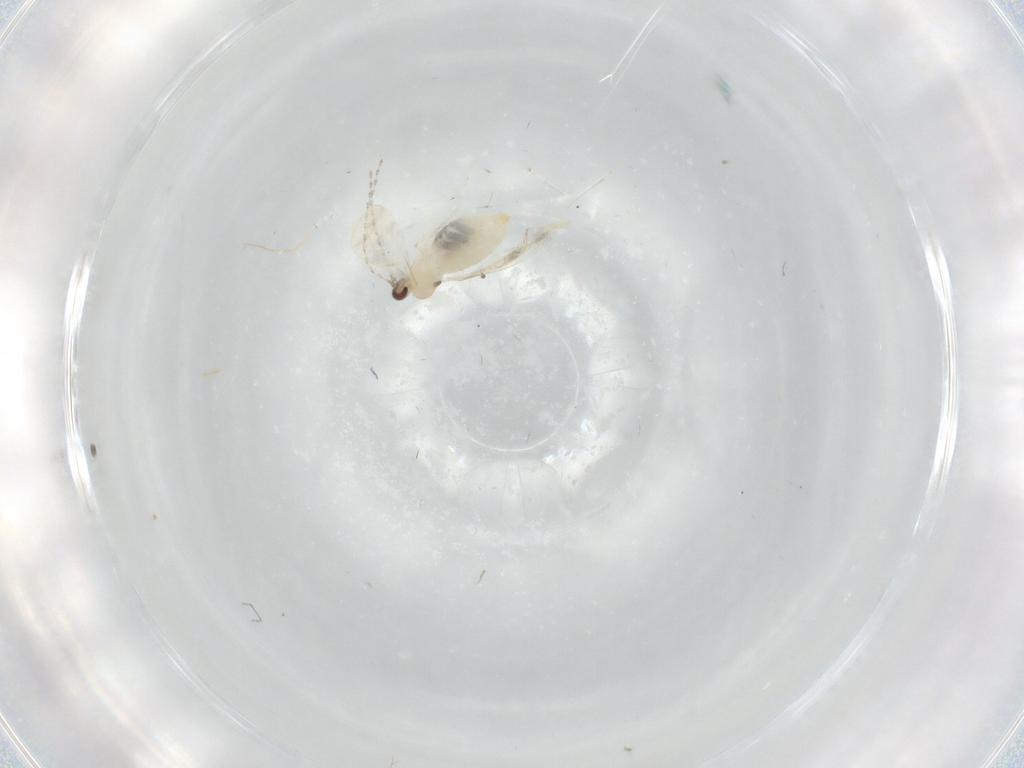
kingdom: Animalia
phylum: Arthropoda
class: Insecta
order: Diptera
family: Cecidomyiidae
